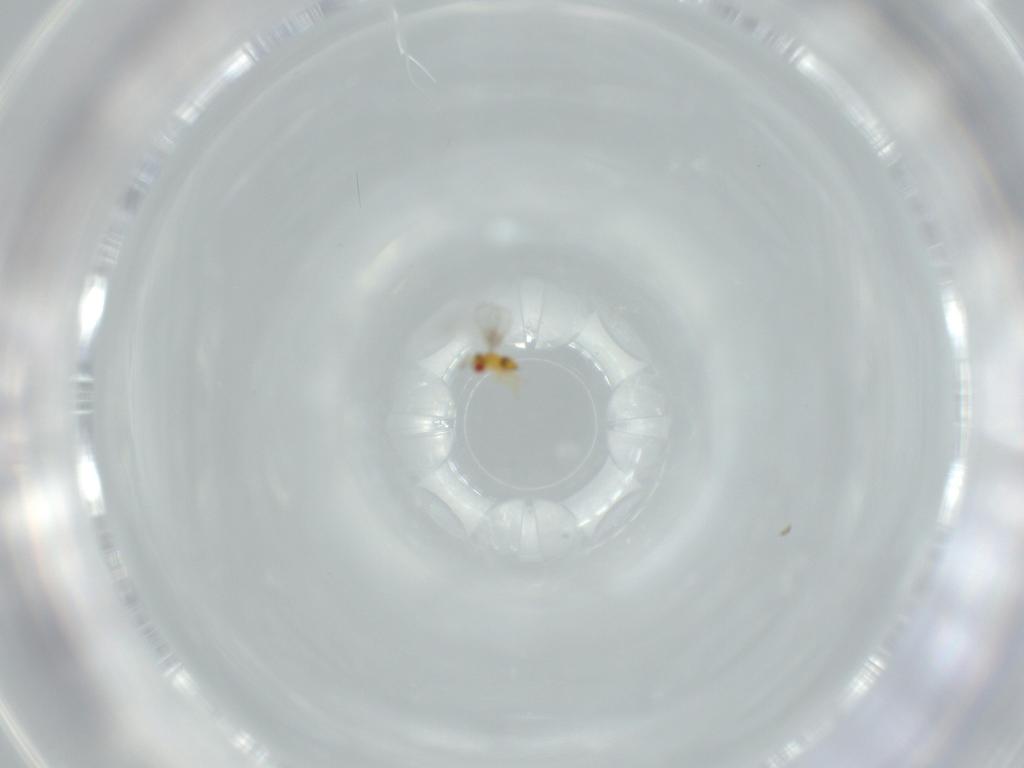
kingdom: Animalia
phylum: Arthropoda
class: Insecta
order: Hymenoptera
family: Trichogrammatidae
